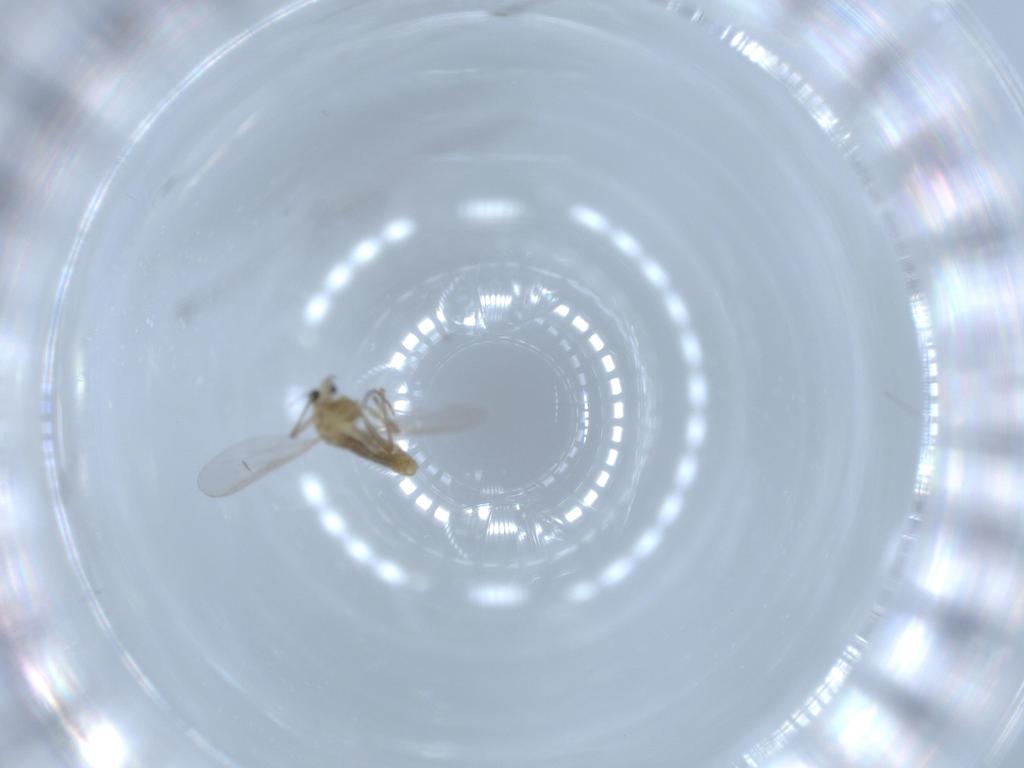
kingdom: Animalia
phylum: Arthropoda
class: Insecta
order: Diptera
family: Chironomidae
